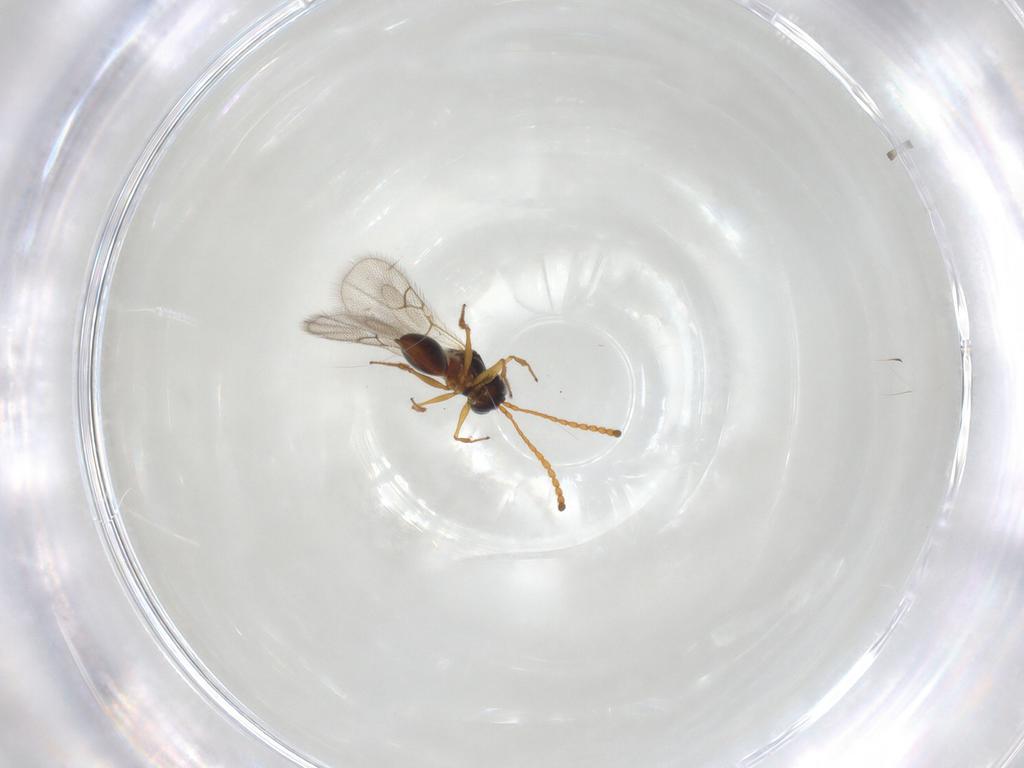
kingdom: Animalia
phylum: Arthropoda
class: Insecta
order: Hymenoptera
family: Figitidae
